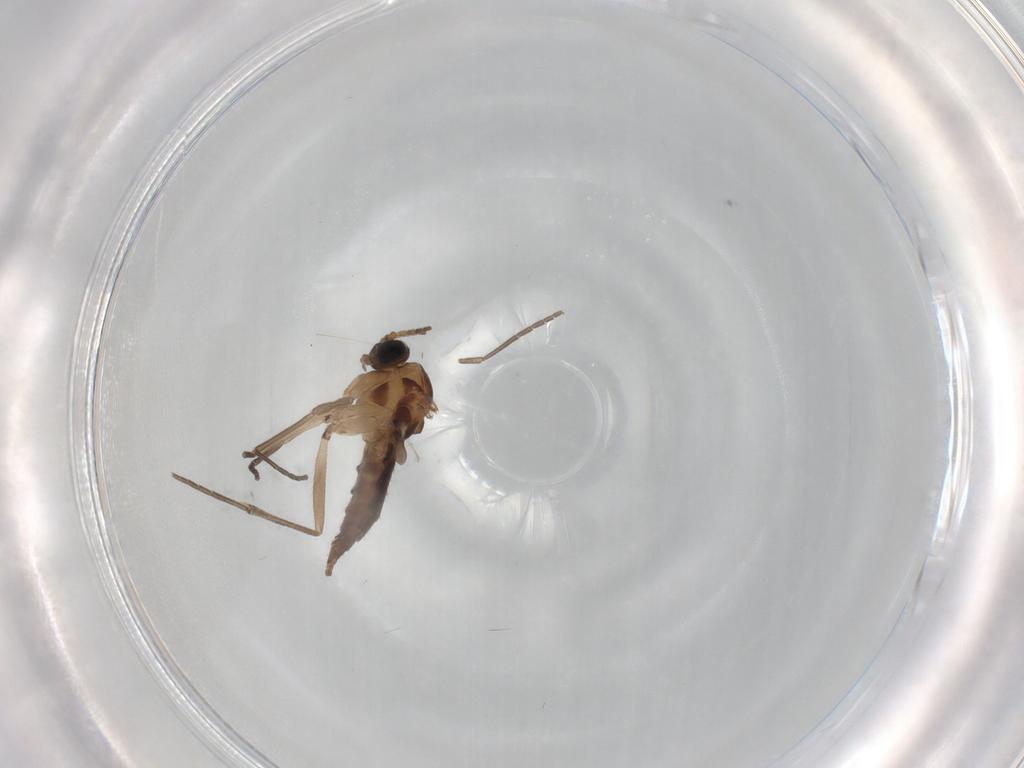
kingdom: Animalia
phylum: Arthropoda
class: Insecta
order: Diptera
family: Sciaridae
